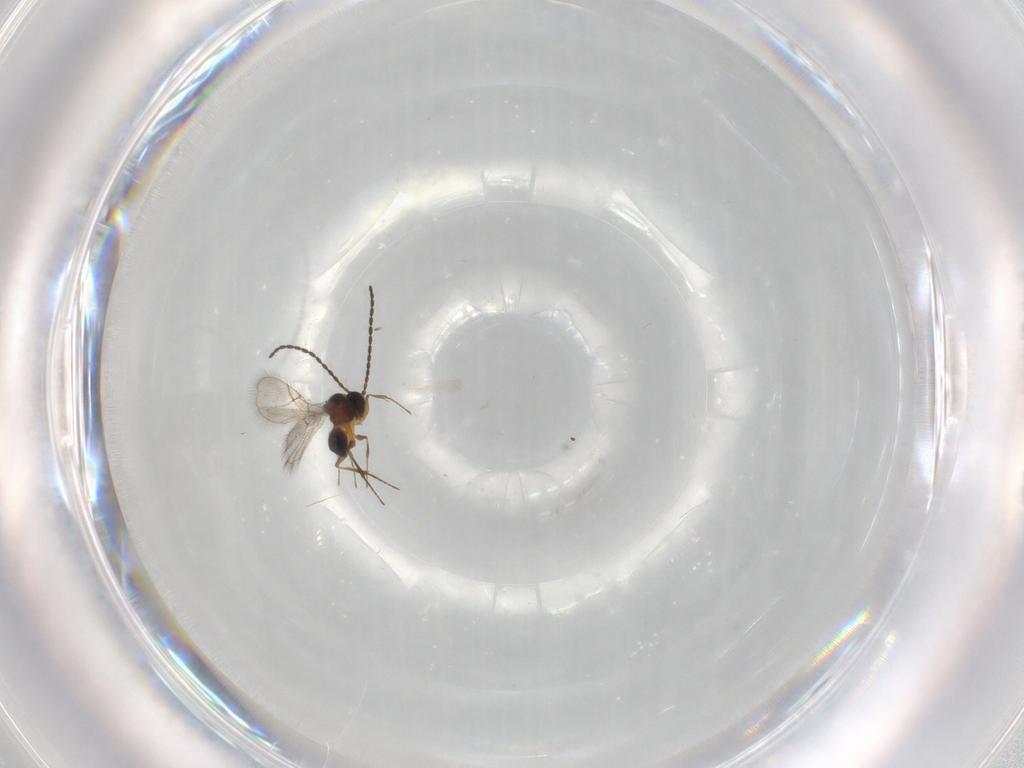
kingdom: Animalia
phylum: Arthropoda
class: Insecta
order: Hymenoptera
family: Figitidae
